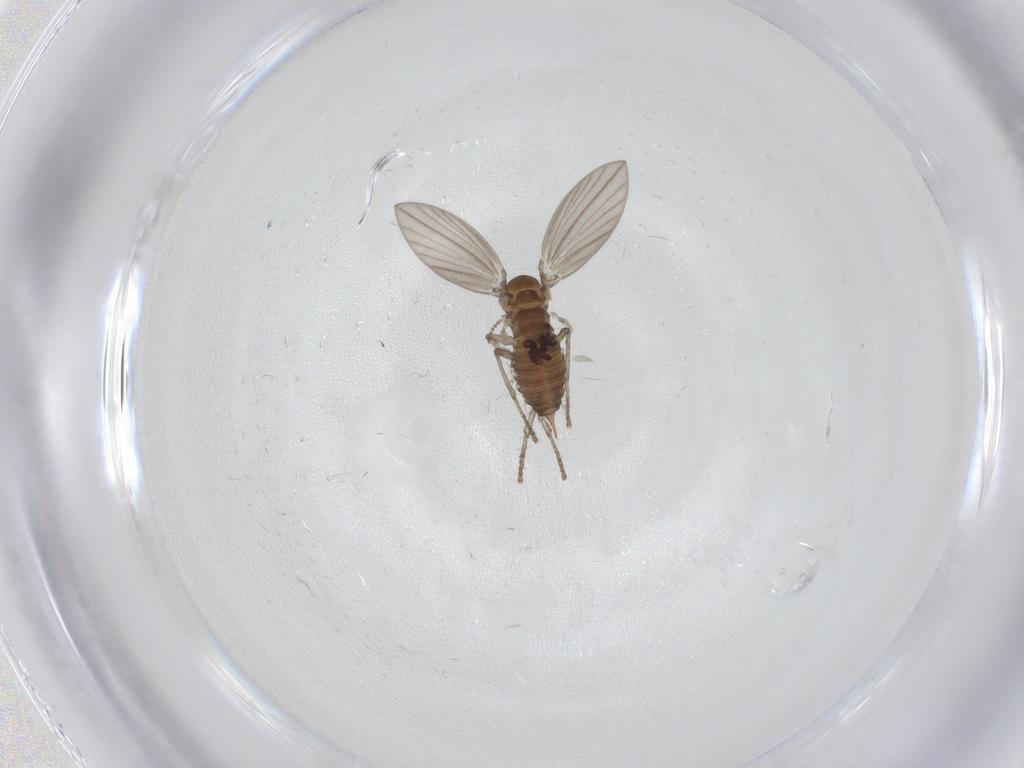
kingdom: Animalia
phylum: Arthropoda
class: Insecta
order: Diptera
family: Psychodidae
